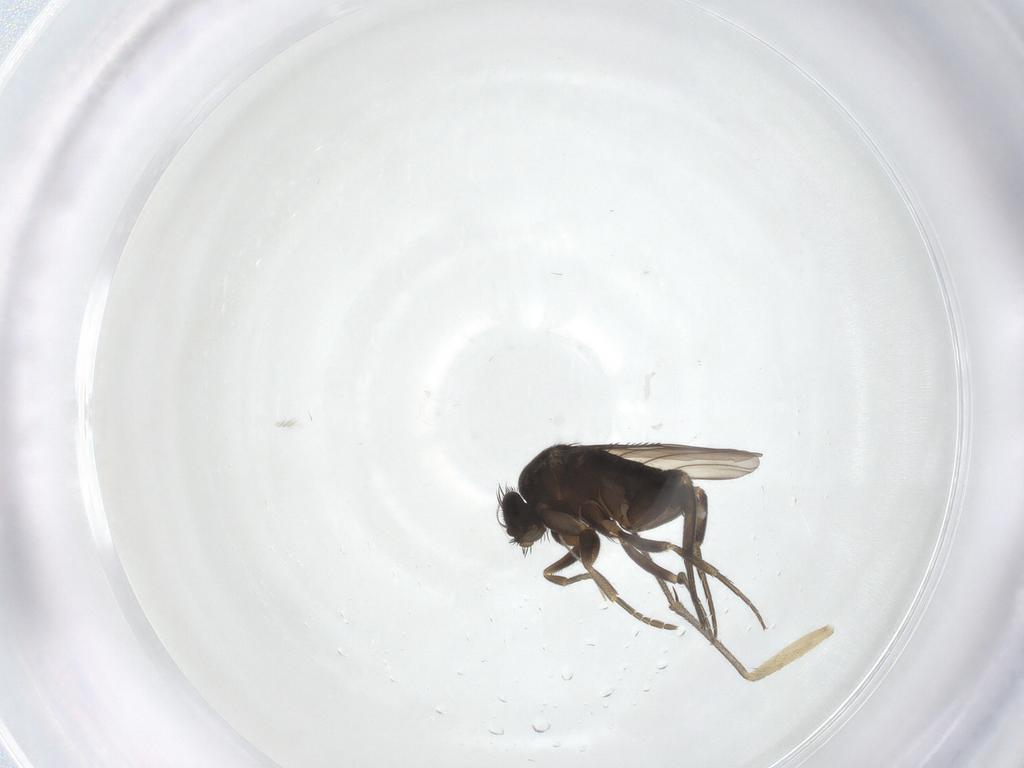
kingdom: Animalia
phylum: Arthropoda
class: Insecta
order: Diptera
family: Phoridae
